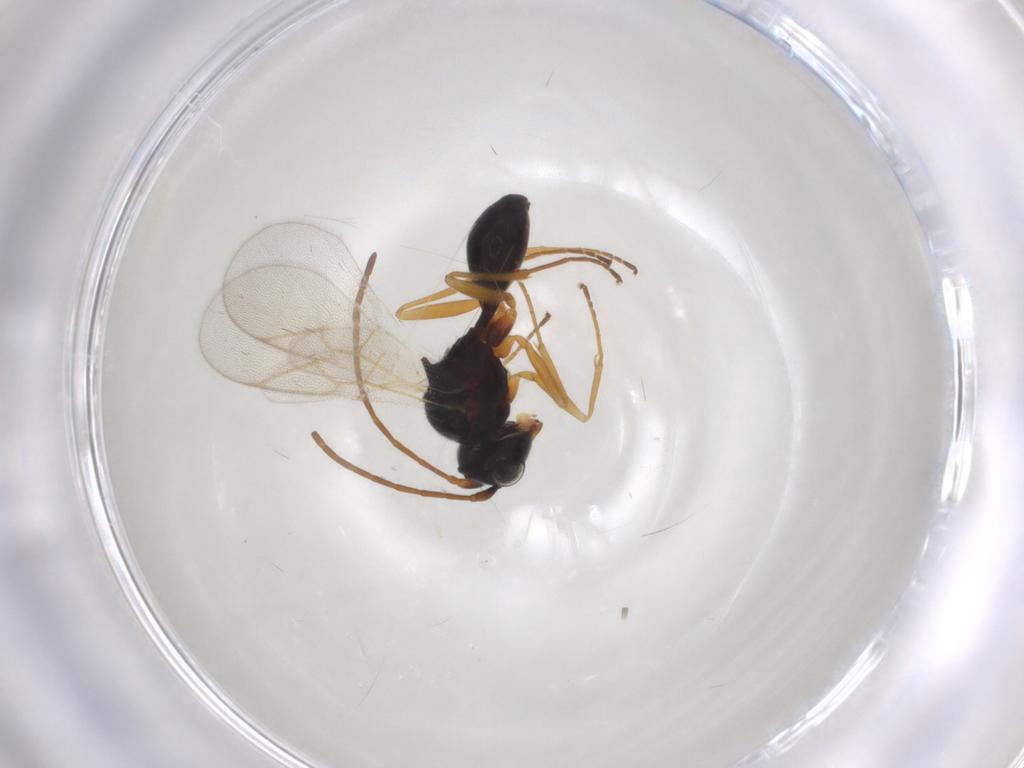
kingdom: Animalia
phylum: Arthropoda
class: Insecta
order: Hymenoptera
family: Figitidae
